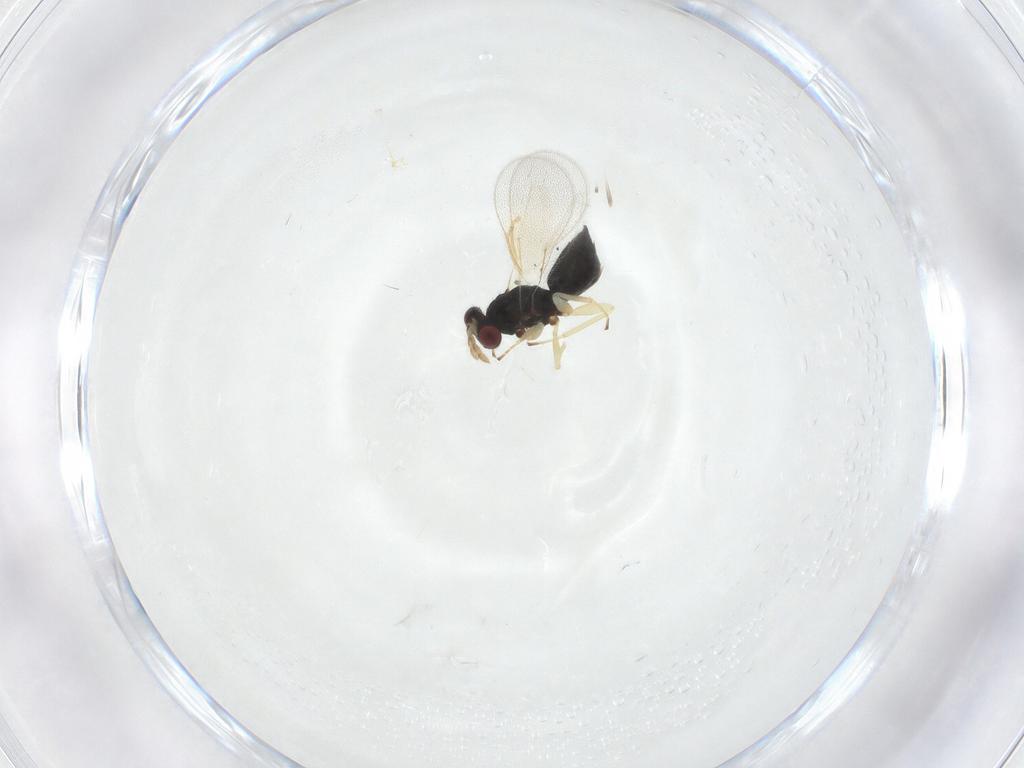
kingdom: Animalia
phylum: Arthropoda
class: Insecta
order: Hymenoptera
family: Eulophidae
